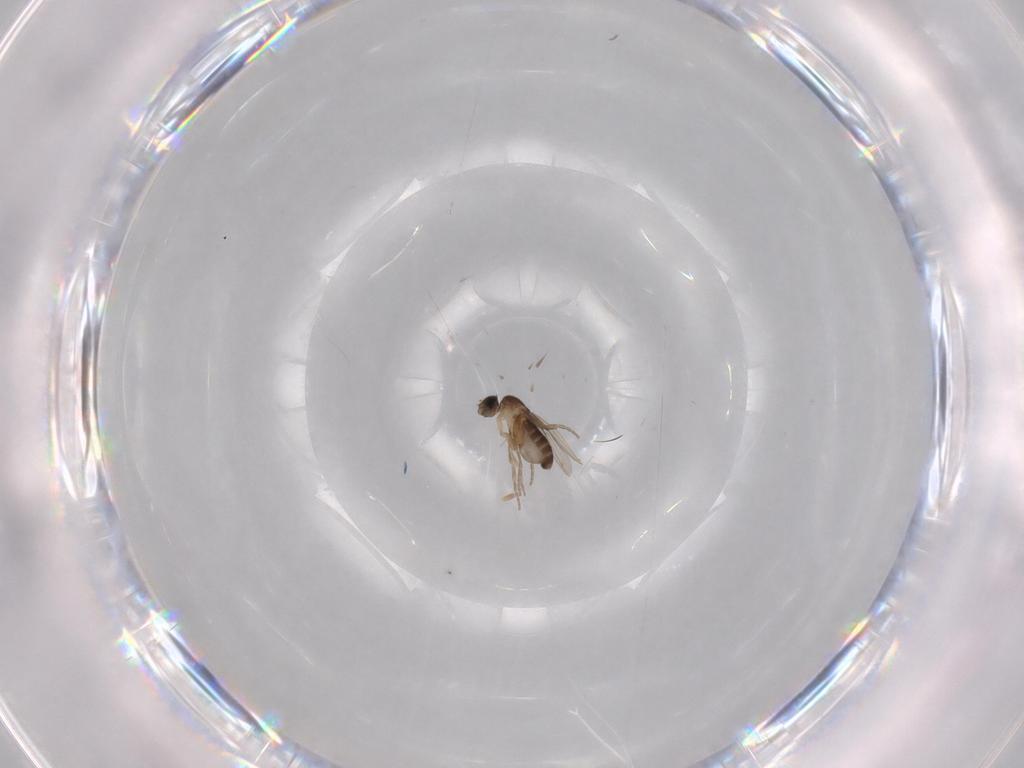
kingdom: Animalia
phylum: Arthropoda
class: Insecta
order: Diptera
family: Phoridae
